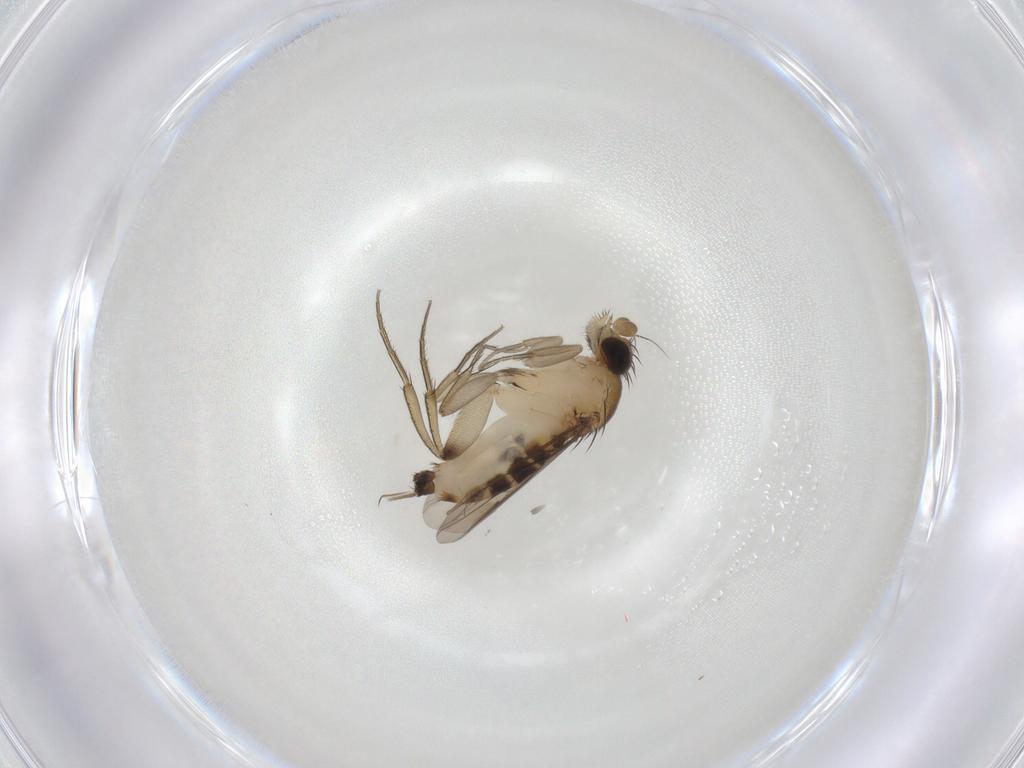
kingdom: Animalia
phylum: Arthropoda
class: Insecta
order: Diptera
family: Phoridae
